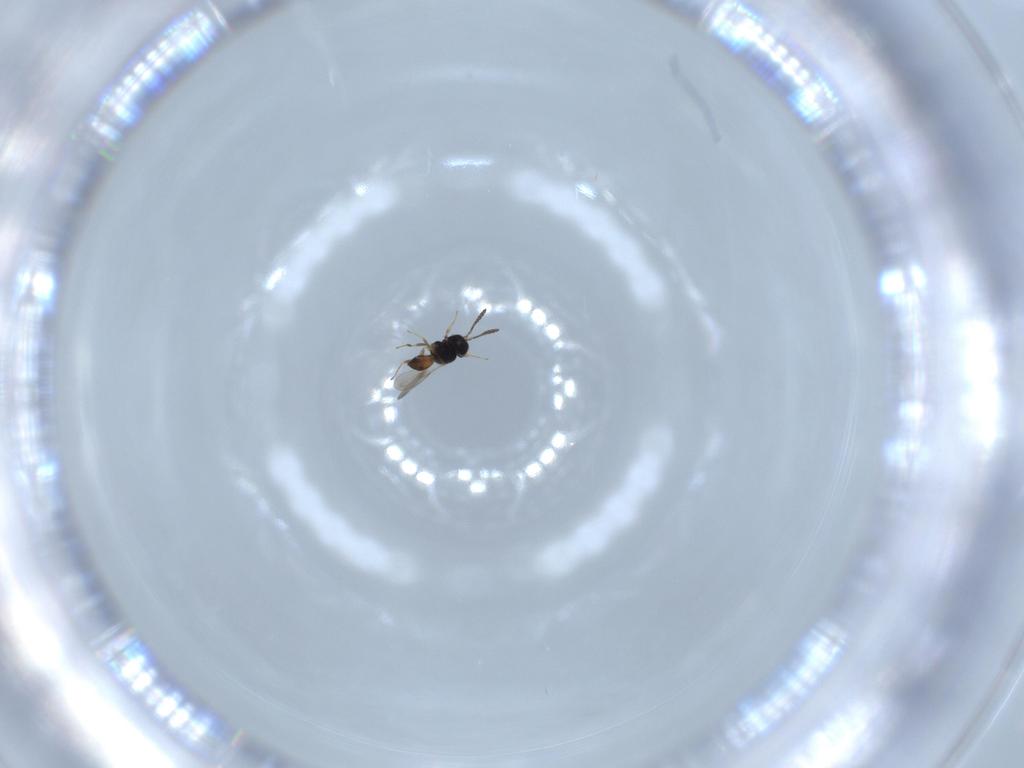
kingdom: Animalia
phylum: Arthropoda
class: Insecta
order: Hymenoptera
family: Scelionidae
